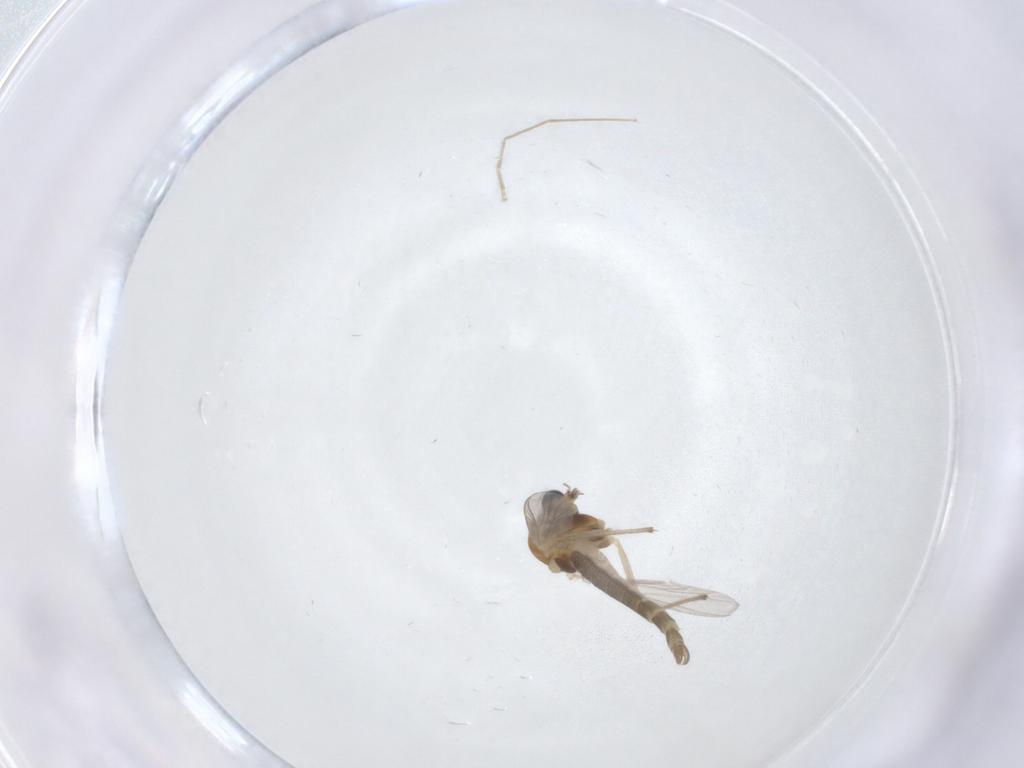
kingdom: Animalia
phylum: Arthropoda
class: Insecta
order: Diptera
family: Chironomidae
